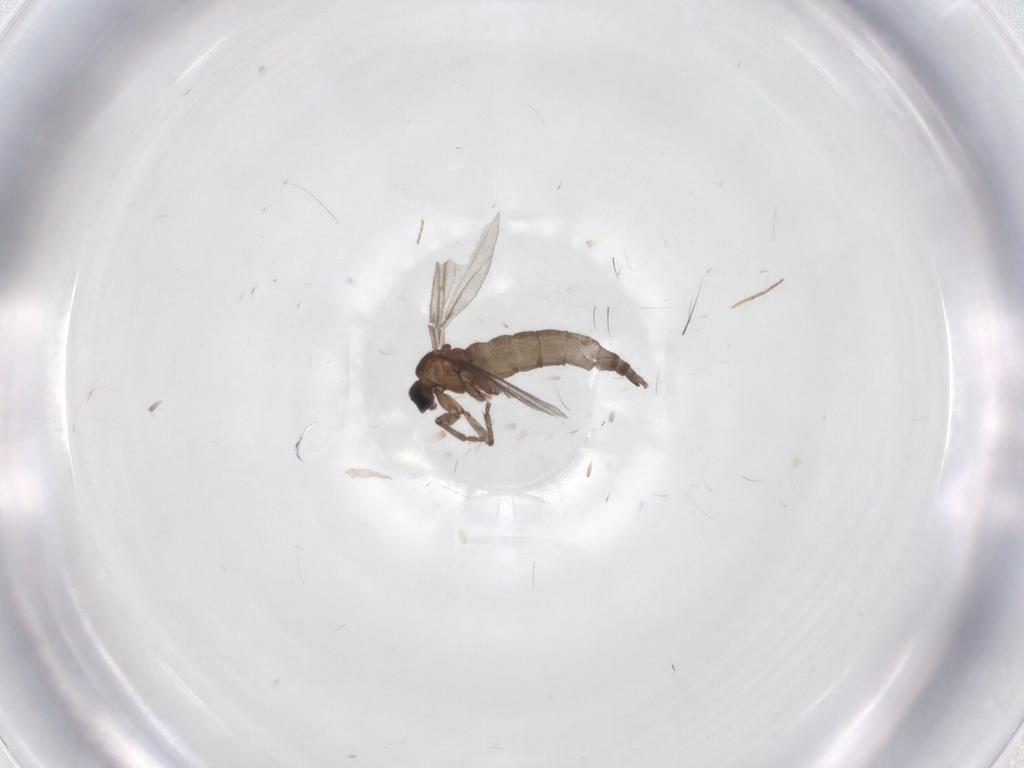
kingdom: Animalia
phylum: Arthropoda
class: Insecta
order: Diptera
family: Sciaridae
